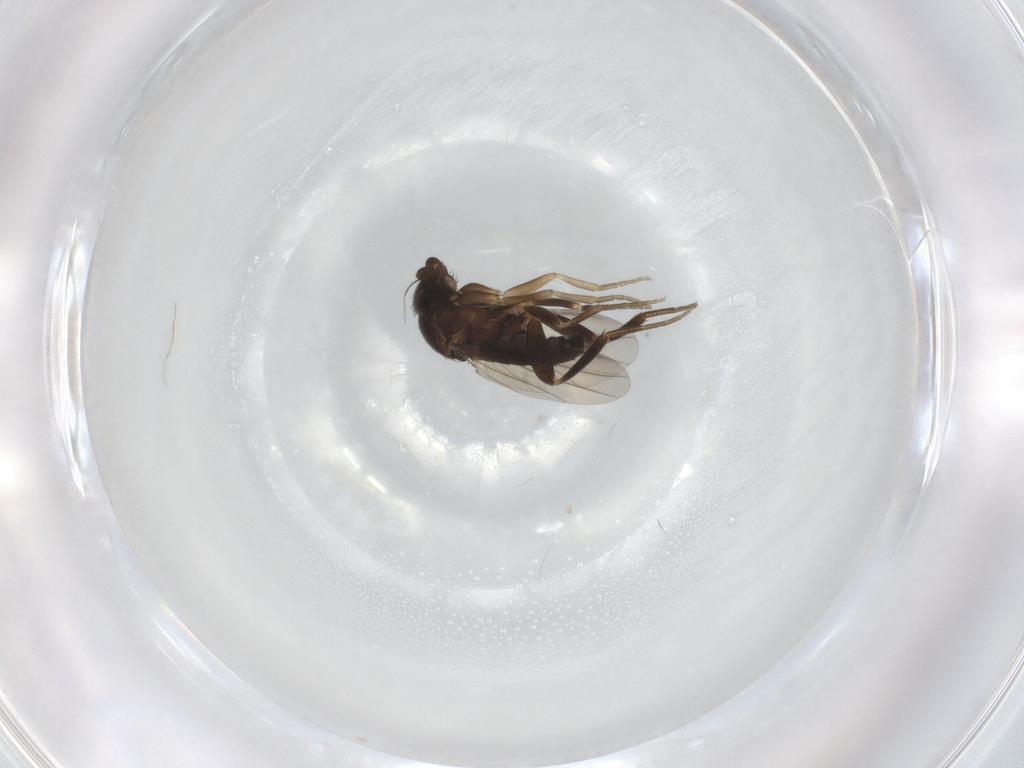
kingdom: Animalia
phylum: Arthropoda
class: Insecta
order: Diptera
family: Phoridae
